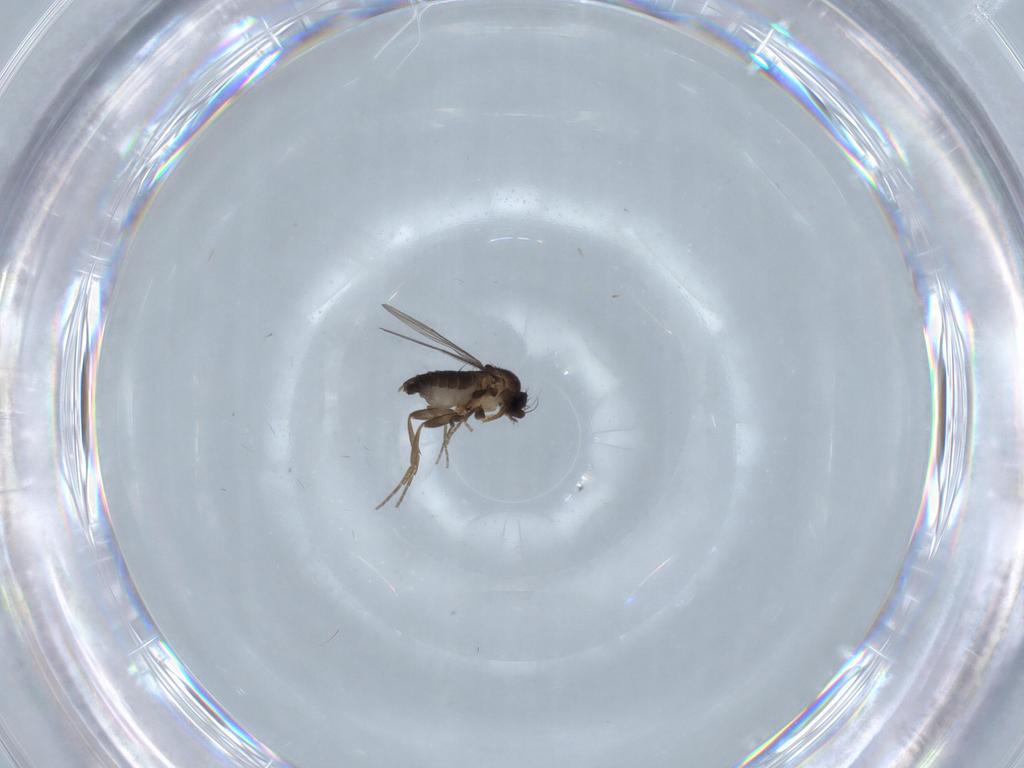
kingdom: Animalia
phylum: Arthropoda
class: Insecta
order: Diptera
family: Phoridae
